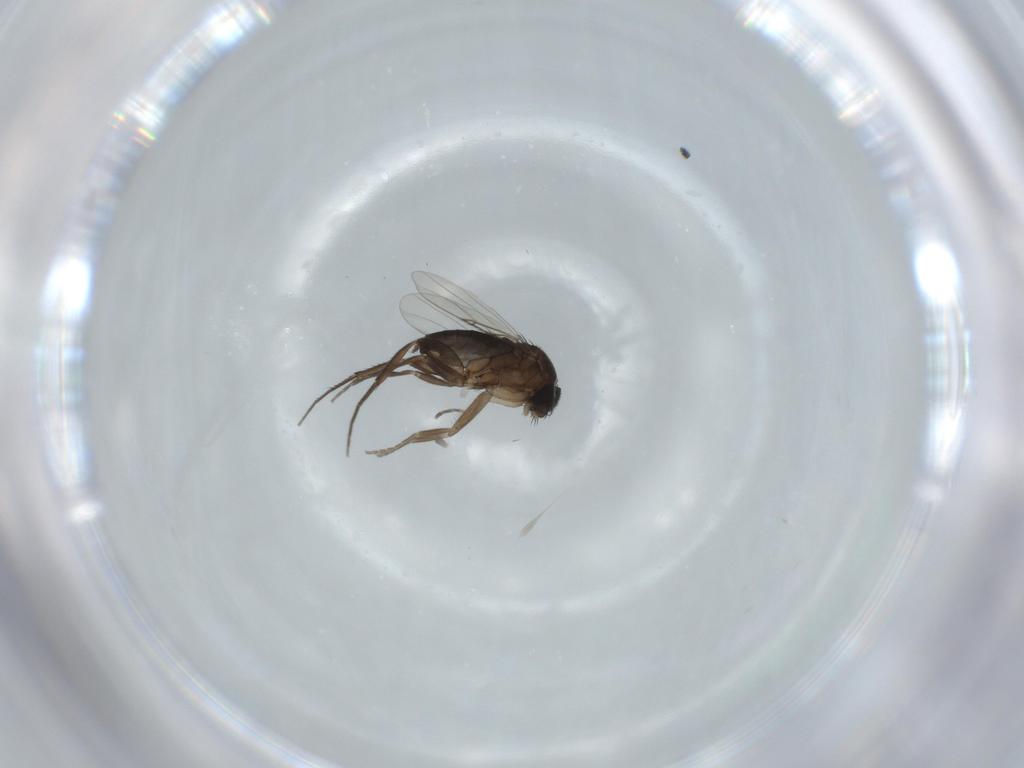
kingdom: Animalia
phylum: Arthropoda
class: Insecta
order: Diptera
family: Phoridae
